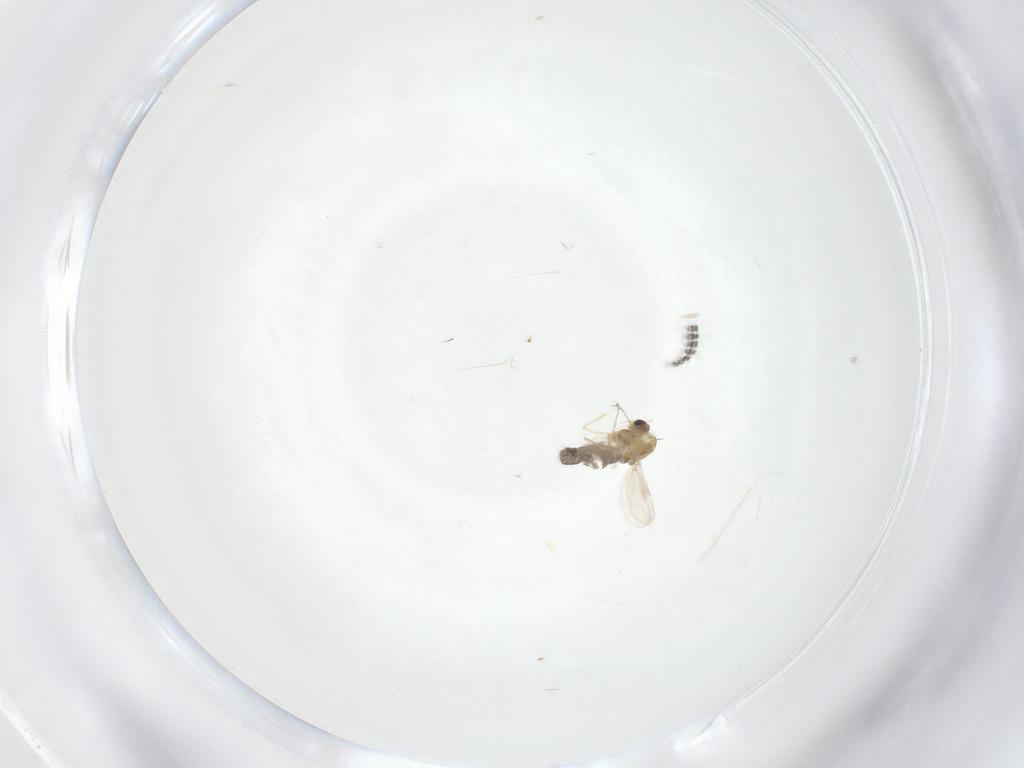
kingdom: Animalia
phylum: Arthropoda
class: Insecta
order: Diptera
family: Chironomidae
